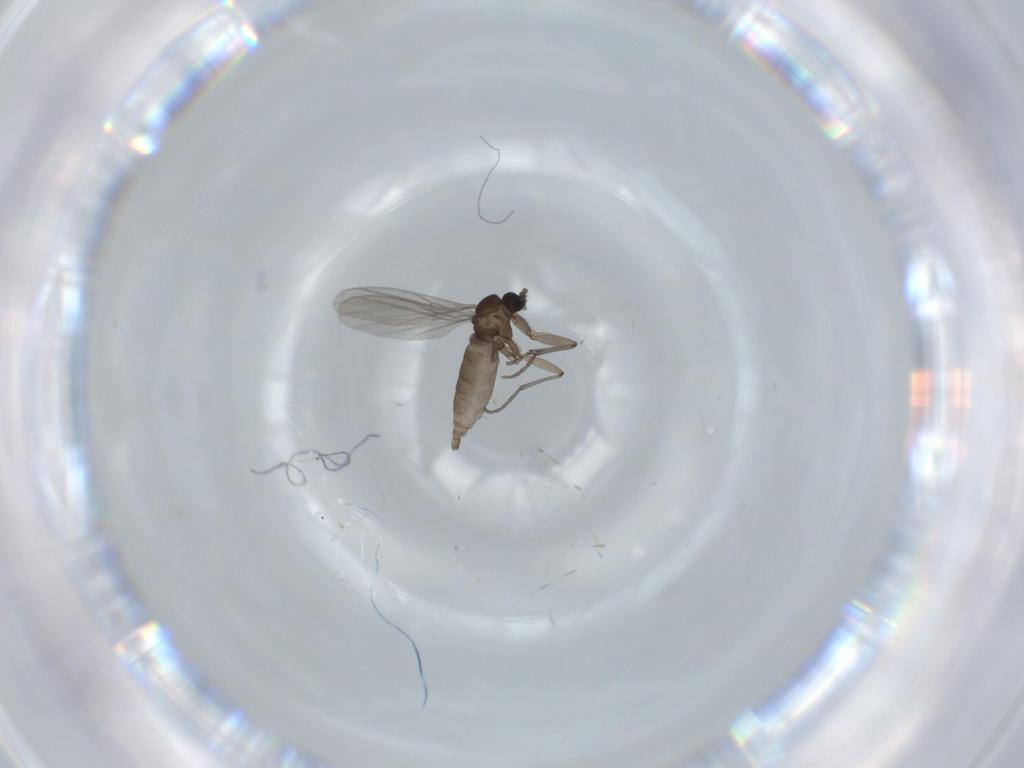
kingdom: Animalia
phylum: Arthropoda
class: Insecta
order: Diptera
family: Sciaridae
